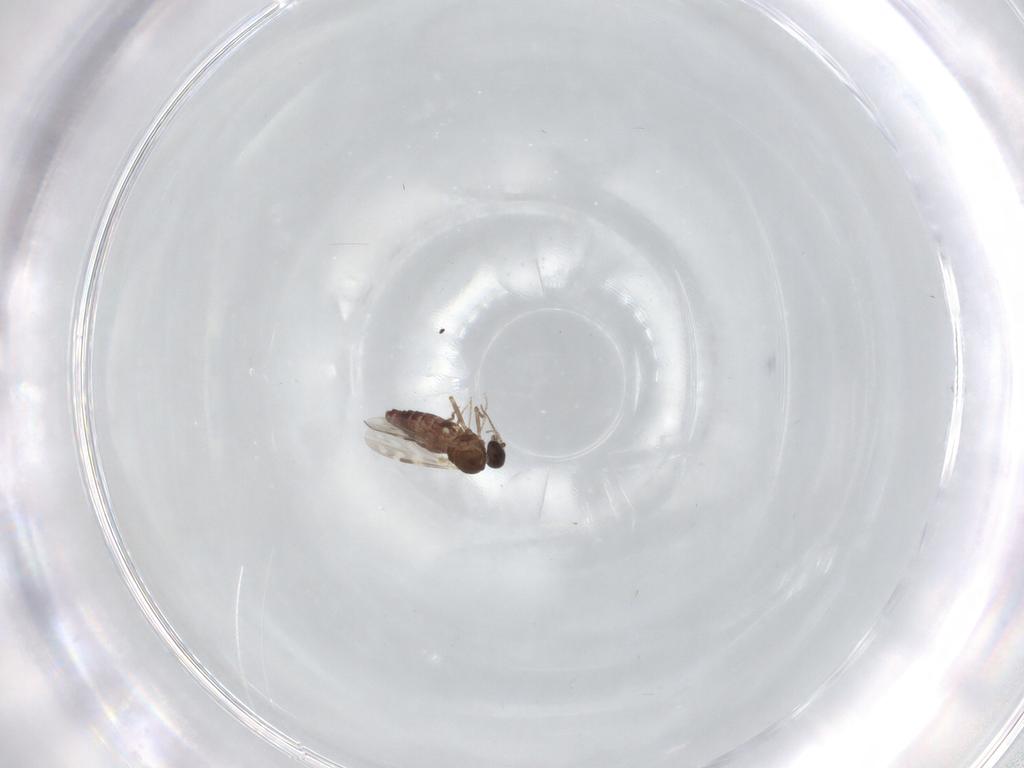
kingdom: Animalia
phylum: Arthropoda
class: Insecta
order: Diptera
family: Ceratopogonidae
